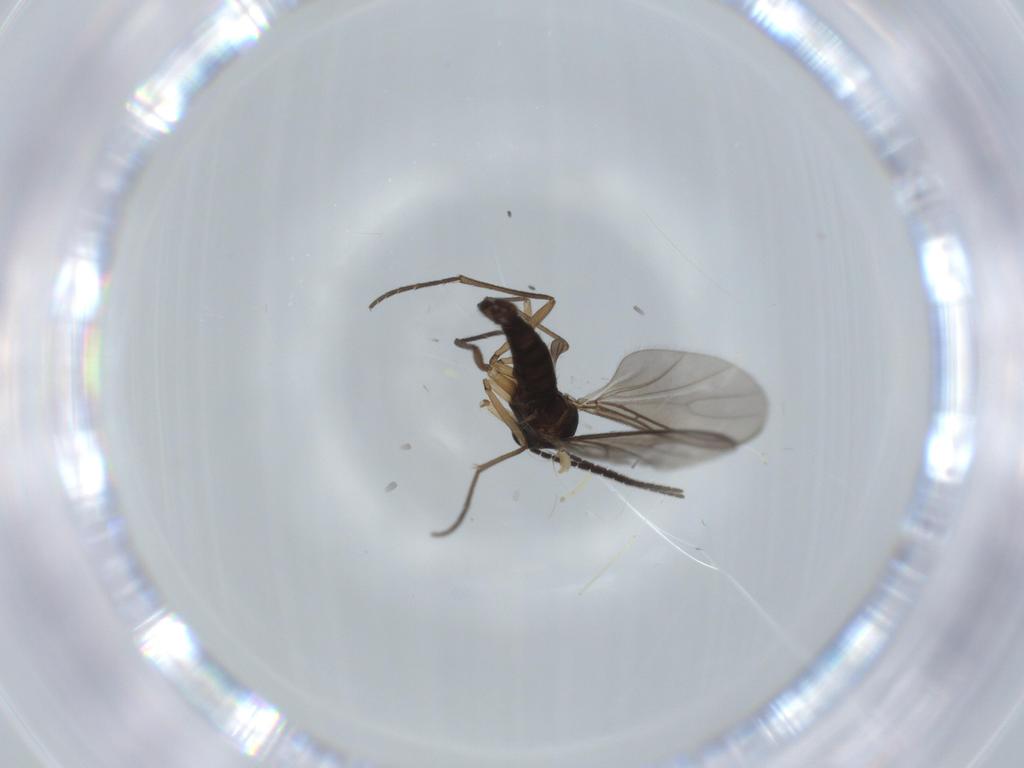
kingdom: Animalia
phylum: Arthropoda
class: Insecta
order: Diptera
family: Sciaridae
